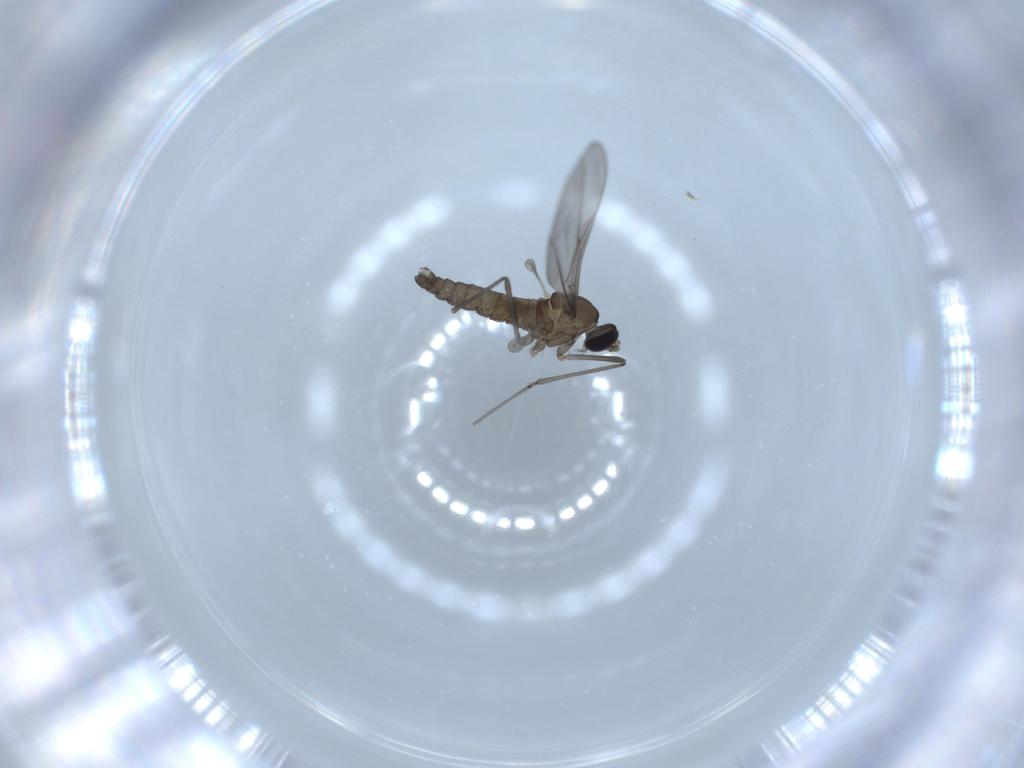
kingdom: Animalia
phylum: Arthropoda
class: Insecta
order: Diptera
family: Cecidomyiidae
